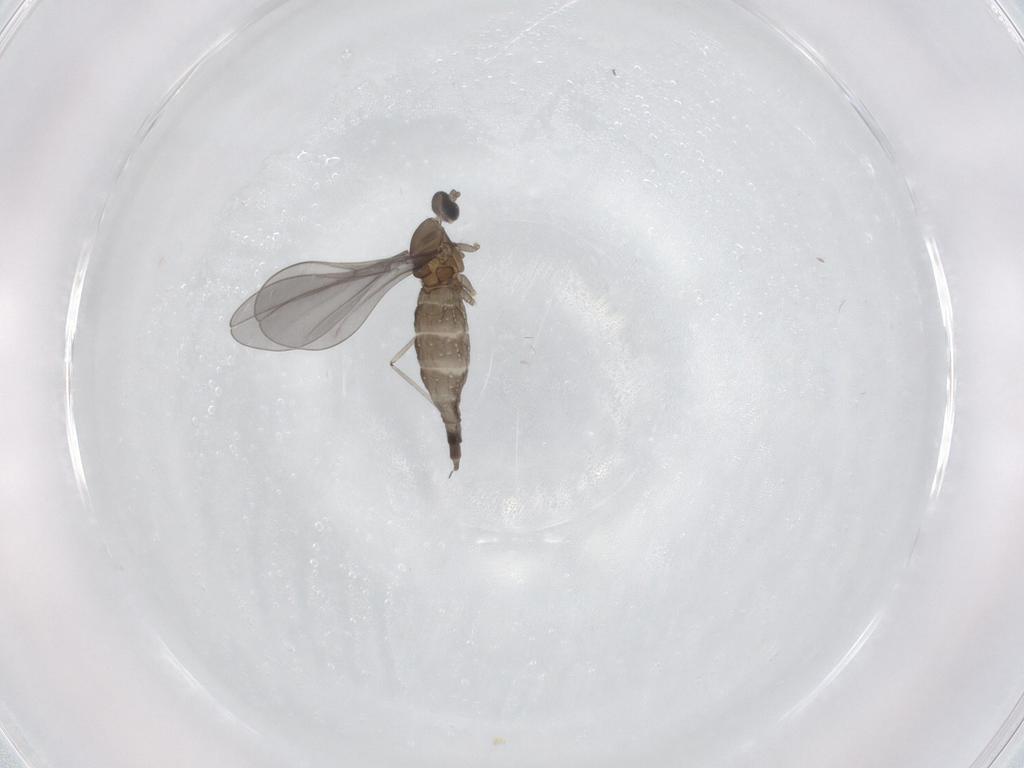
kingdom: Animalia
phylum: Arthropoda
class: Insecta
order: Diptera
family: Cecidomyiidae
